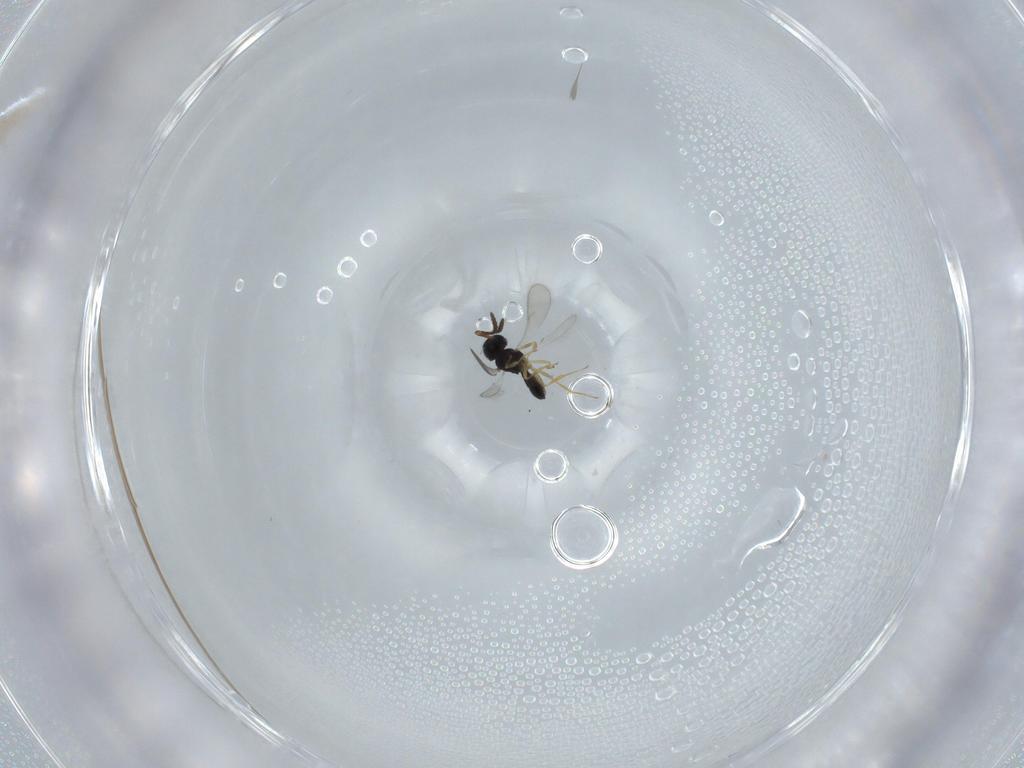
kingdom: Animalia
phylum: Arthropoda
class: Insecta
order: Hymenoptera
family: Scelionidae
